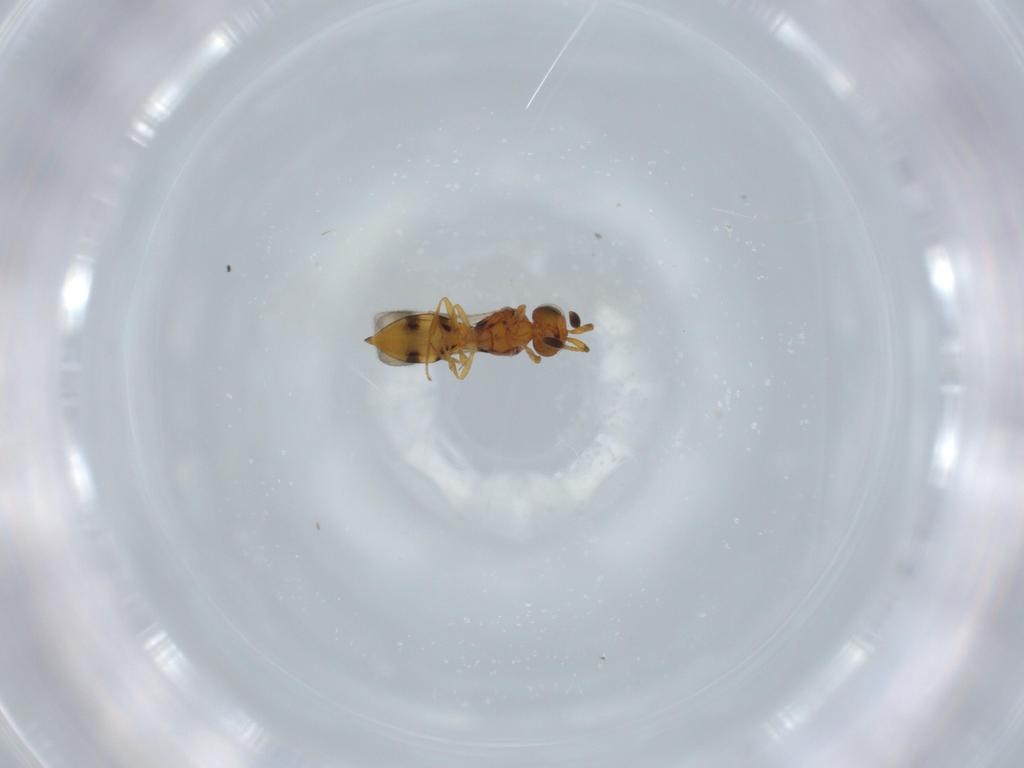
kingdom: Animalia
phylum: Arthropoda
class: Insecta
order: Hymenoptera
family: Scelionidae
